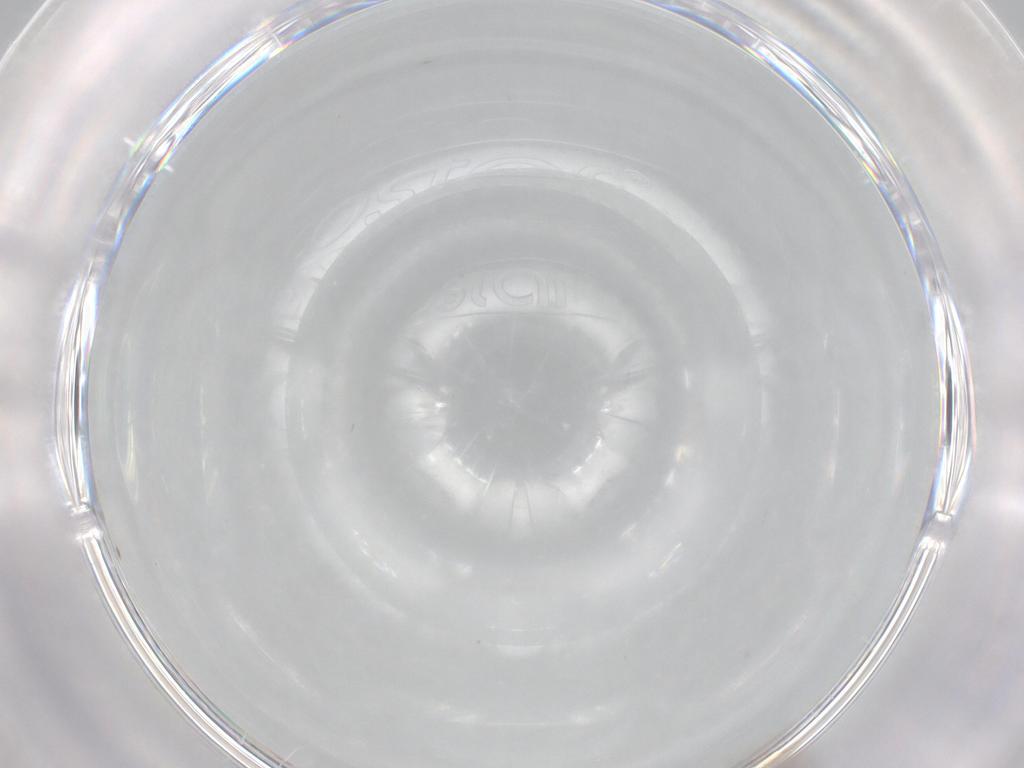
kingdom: Animalia
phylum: Arthropoda
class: Insecta
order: Diptera
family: Cecidomyiidae
